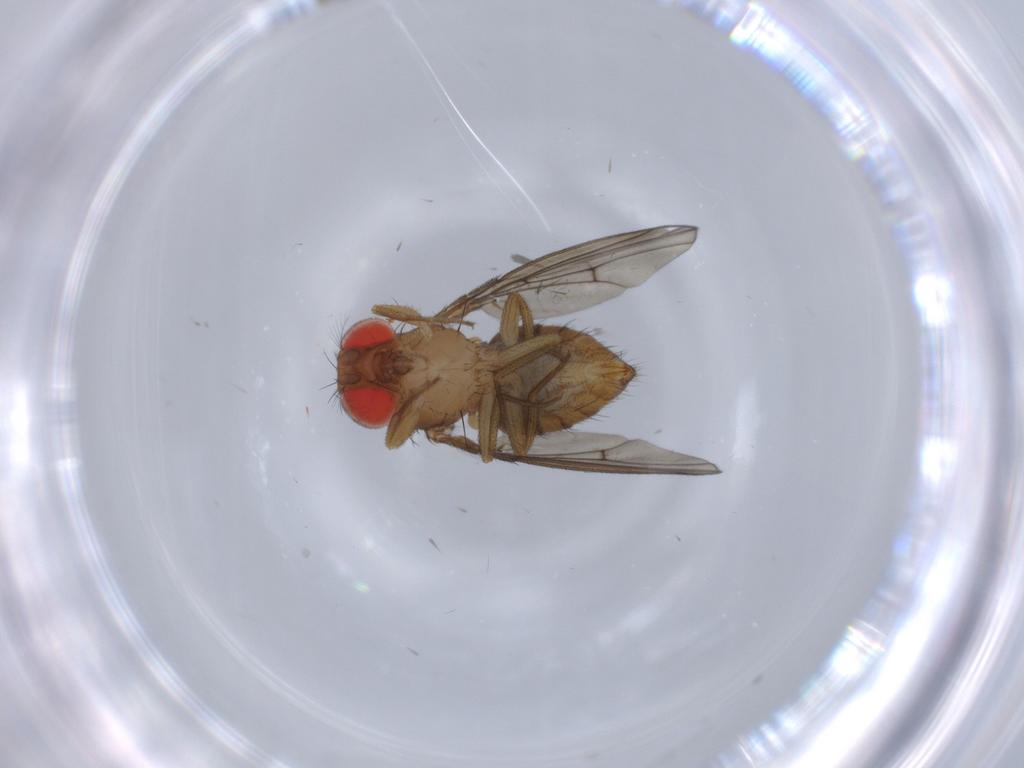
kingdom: Animalia
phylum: Arthropoda
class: Insecta
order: Diptera
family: Drosophilidae
